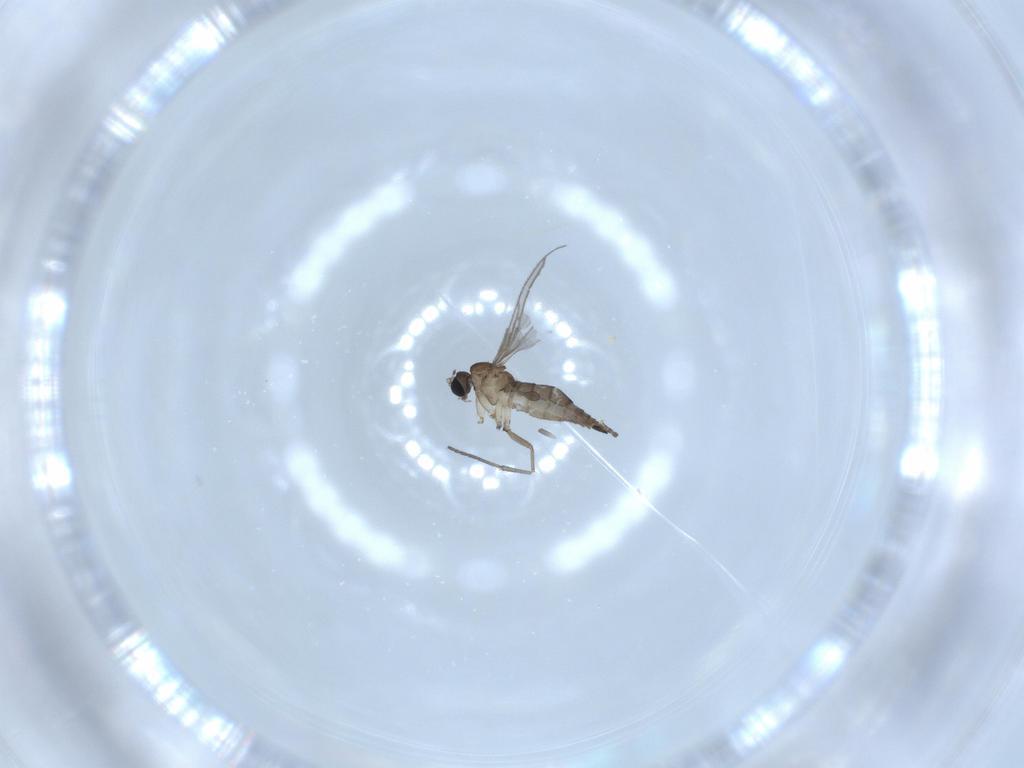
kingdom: Animalia
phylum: Arthropoda
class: Insecta
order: Diptera
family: Sciaridae
